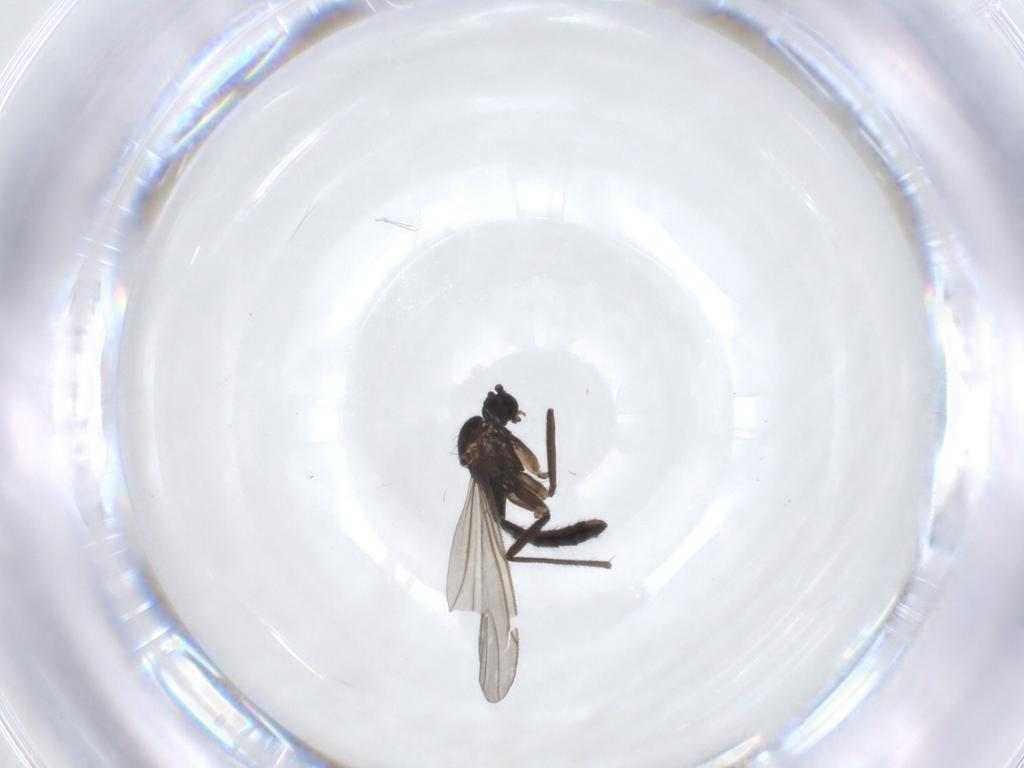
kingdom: Animalia
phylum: Arthropoda
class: Insecta
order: Diptera
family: Sciaridae
